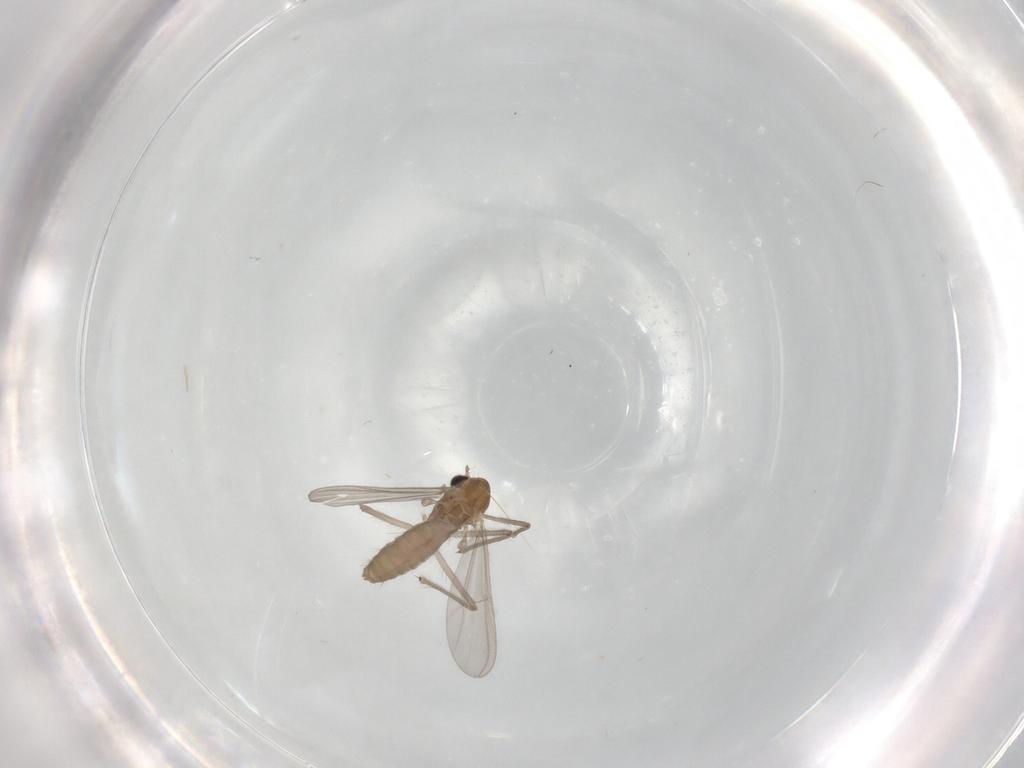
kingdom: Animalia
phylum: Arthropoda
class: Insecta
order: Diptera
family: Chironomidae
